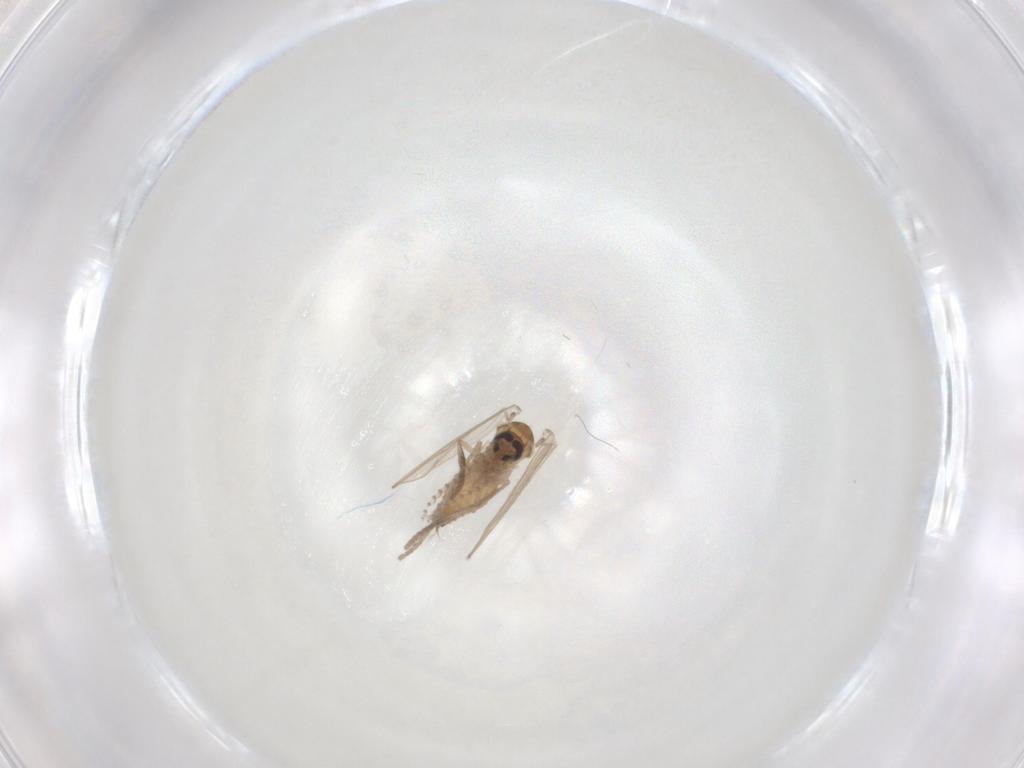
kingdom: Animalia
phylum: Arthropoda
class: Insecta
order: Diptera
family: Psychodidae
